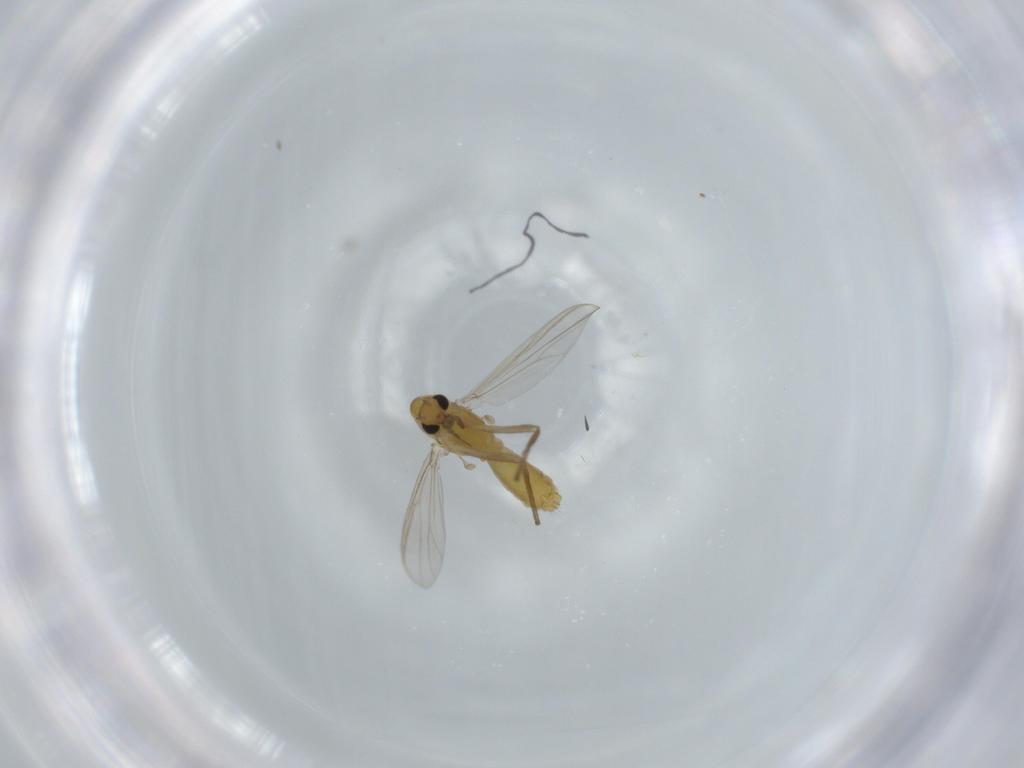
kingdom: Animalia
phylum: Arthropoda
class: Insecta
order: Diptera
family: Chironomidae
